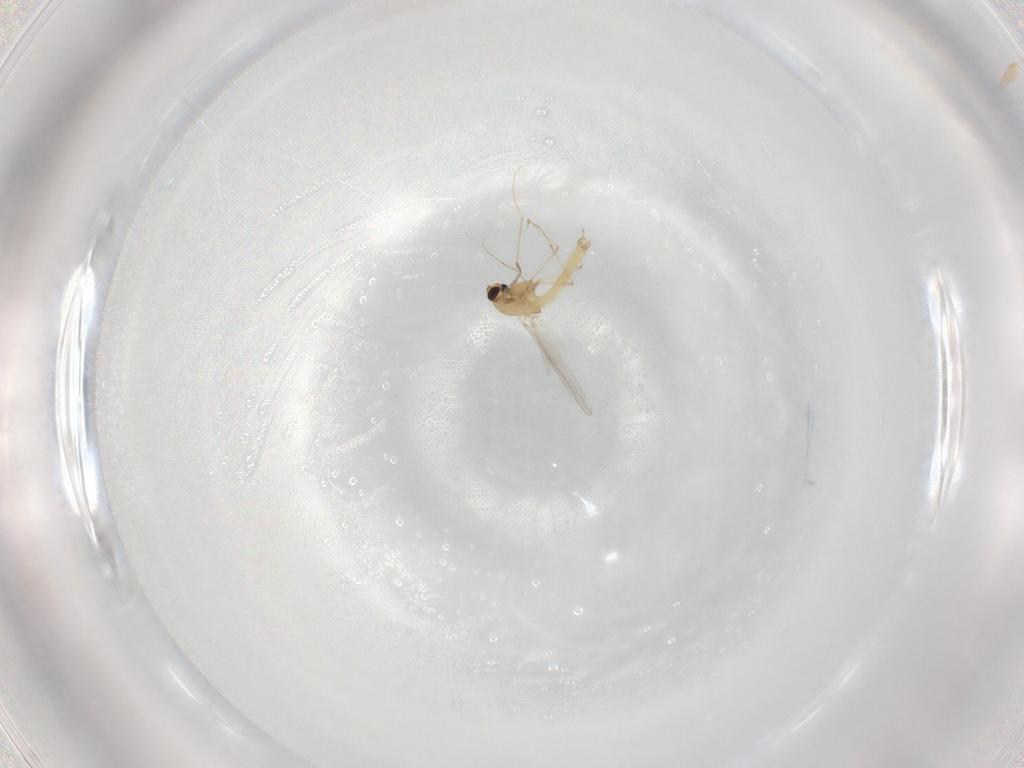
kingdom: Animalia
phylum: Arthropoda
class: Insecta
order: Diptera
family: Chironomidae
